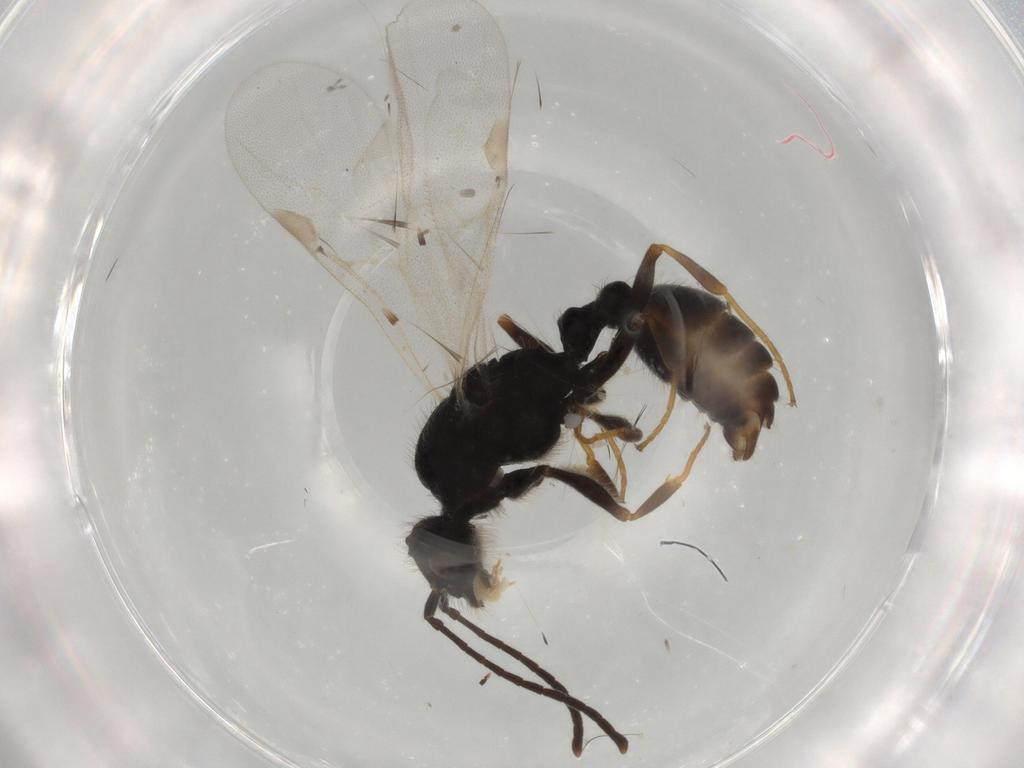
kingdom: Animalia
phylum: Arthropoda
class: Insecta
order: Hymenoptera
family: Formicidae
